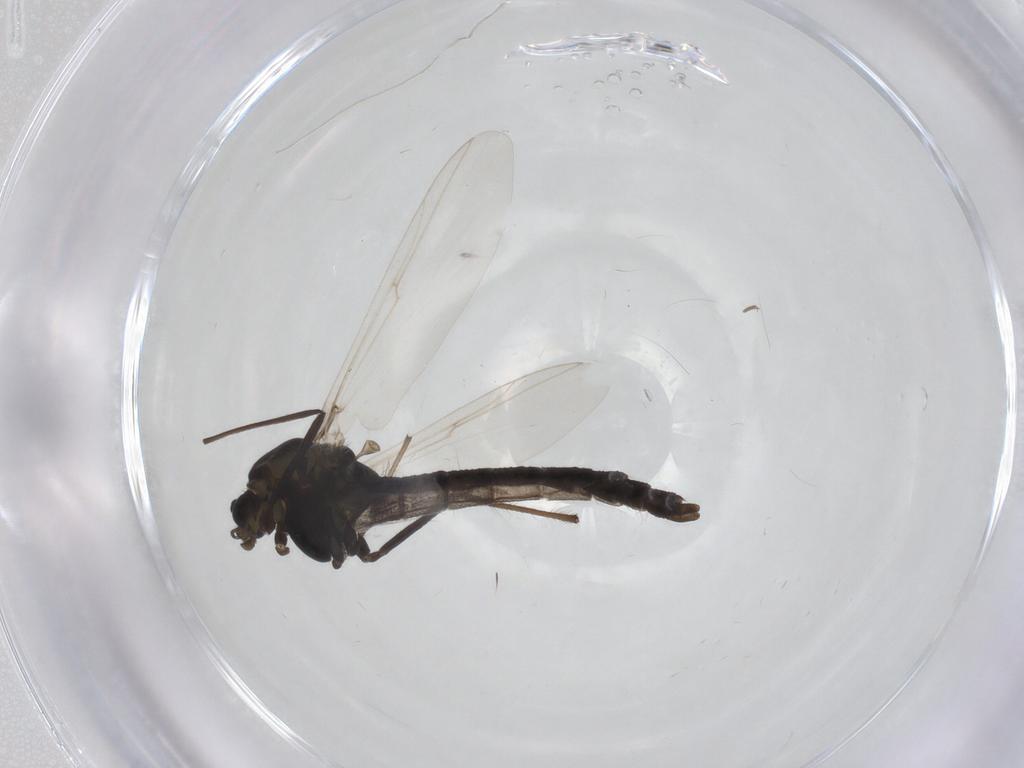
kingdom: Animalia
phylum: Arthropoda
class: Insecta
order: Diptera
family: Chironomidae
